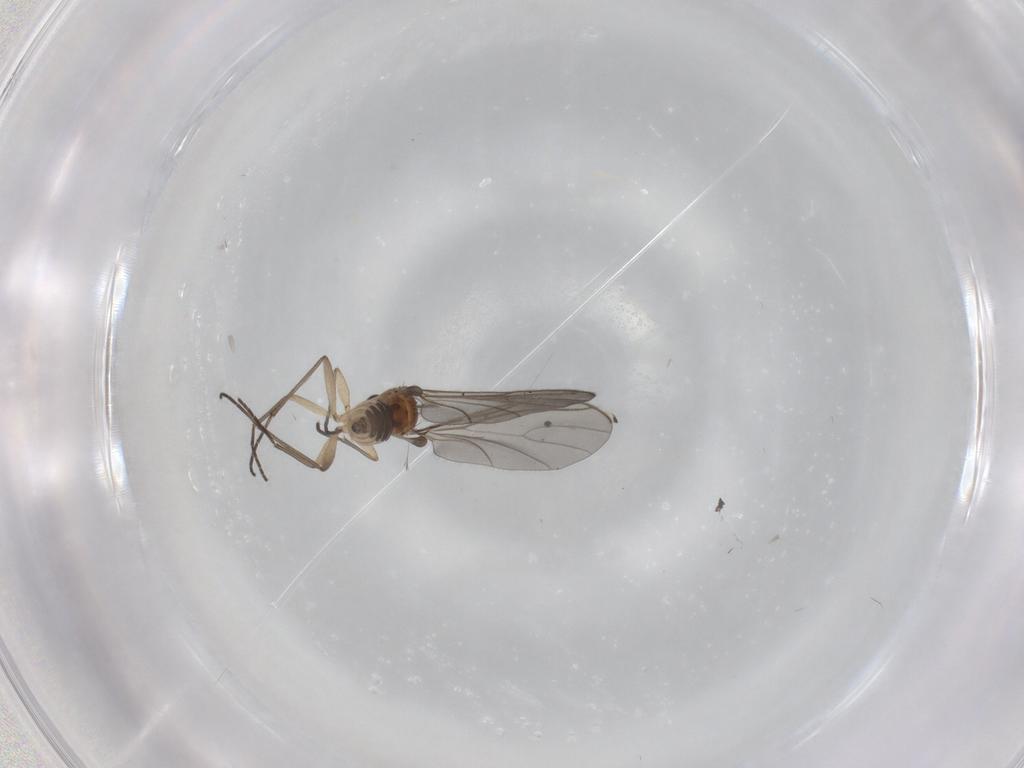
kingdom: Animalia
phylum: Arthropoda
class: Insecta
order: Diptera
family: Sciaridae
